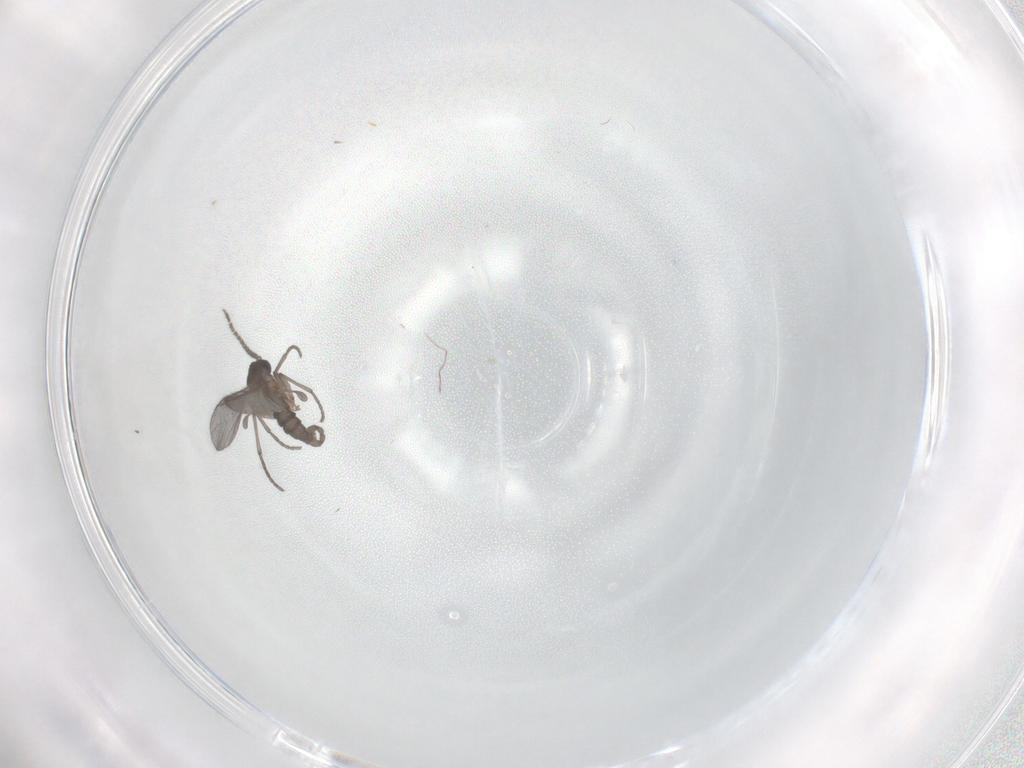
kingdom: Animalia
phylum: Arthropoda
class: Insecta
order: Diptera
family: Sciaridae
